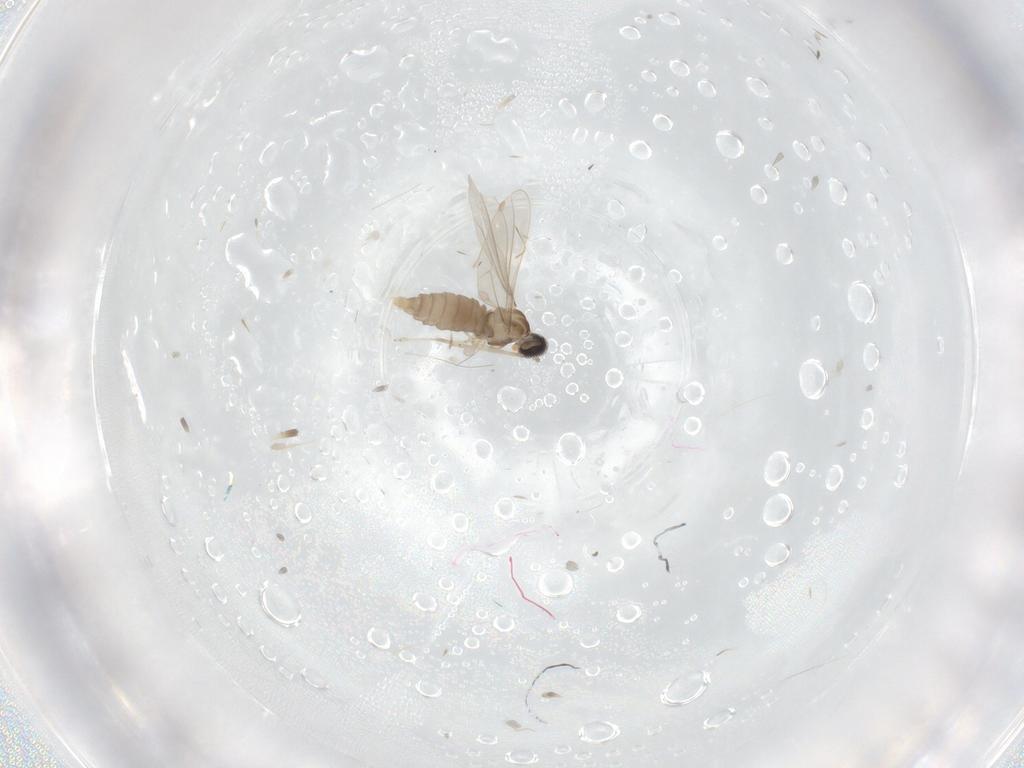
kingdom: Animalia
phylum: Arthropoda
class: Insecta
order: Diptera
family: Cecidomyiidae
